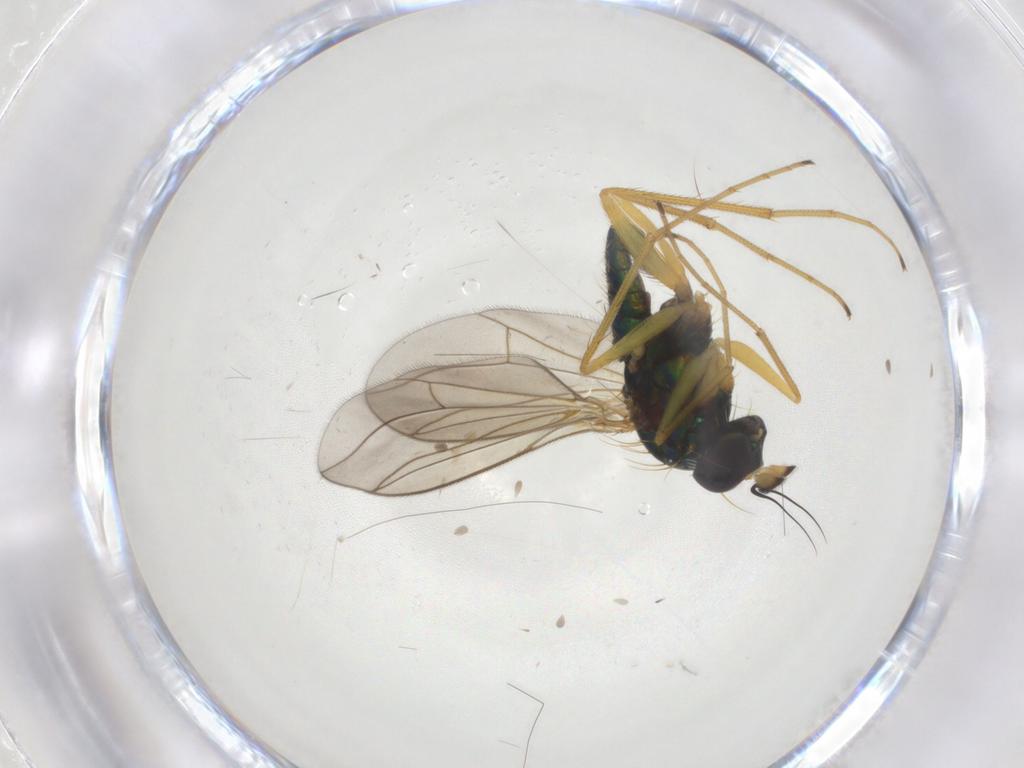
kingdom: Animalia
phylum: Arthropoda
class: Insecta
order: Diptera
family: Dolichopodidae
